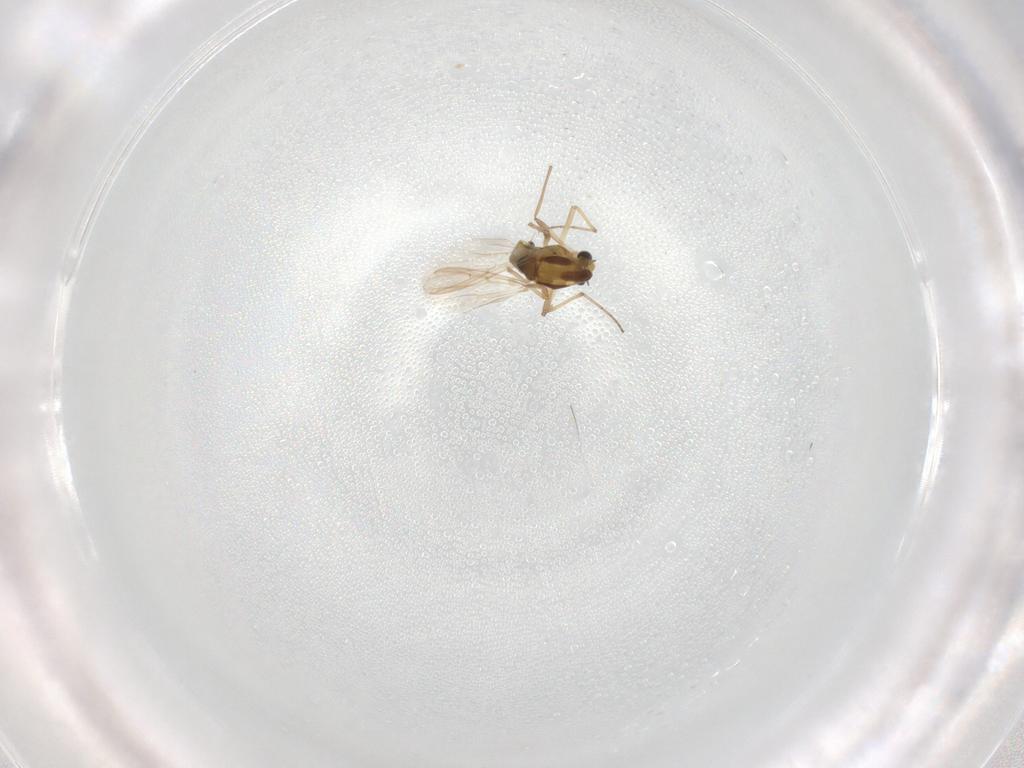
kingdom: Animalia
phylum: Arthropoda
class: Insecta
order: Diptera
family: Chironomidae
